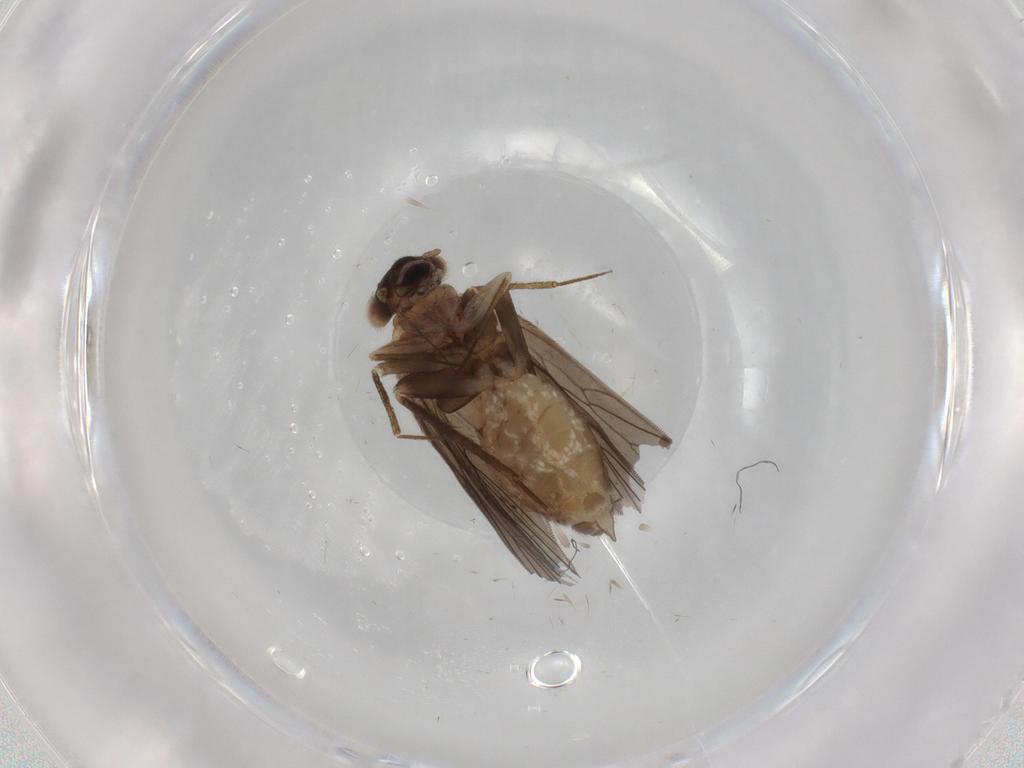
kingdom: Animalia
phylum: Arthropoda
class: Insecta
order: Psocodea
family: Lepidopsocidae
